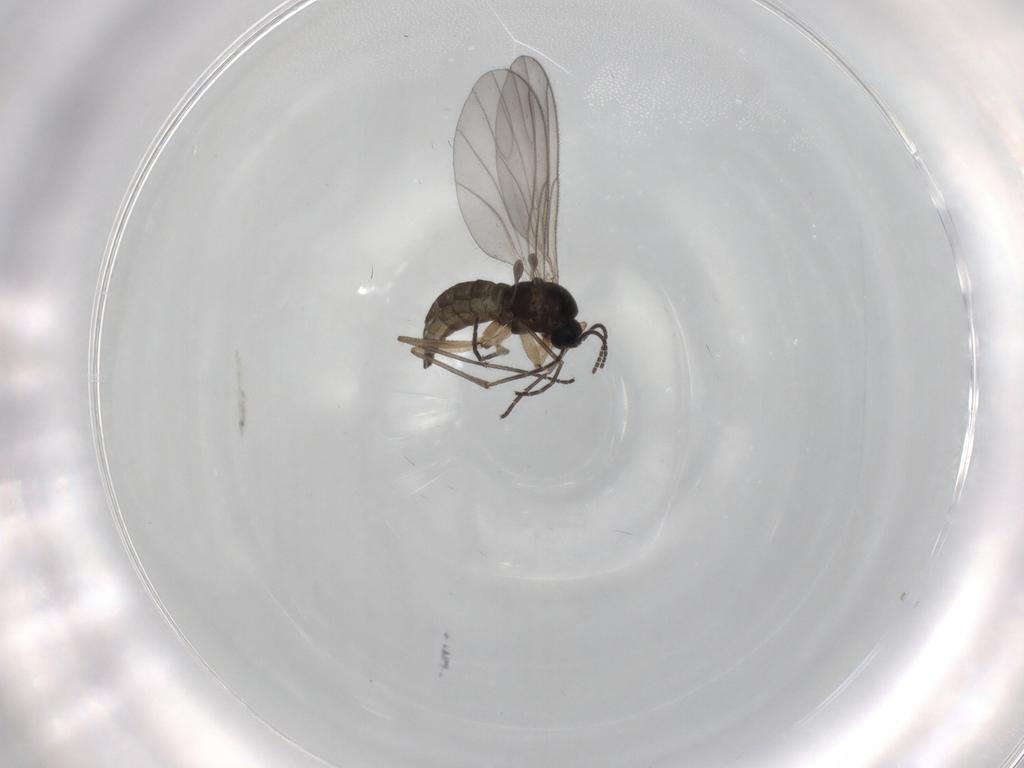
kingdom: Animalia
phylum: Arthropoda
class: Insecta
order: Diptera
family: Sciaridae
